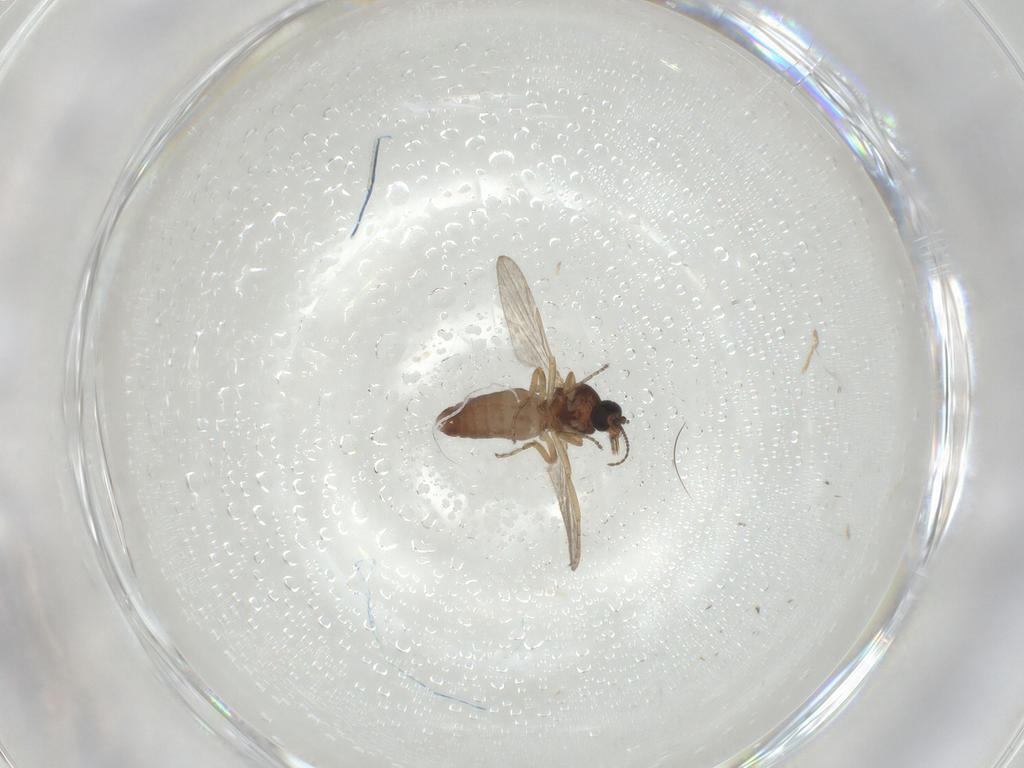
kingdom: Animalia
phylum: Arthropoda
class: Insecta
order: Diptera
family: Ceratopogonidae
